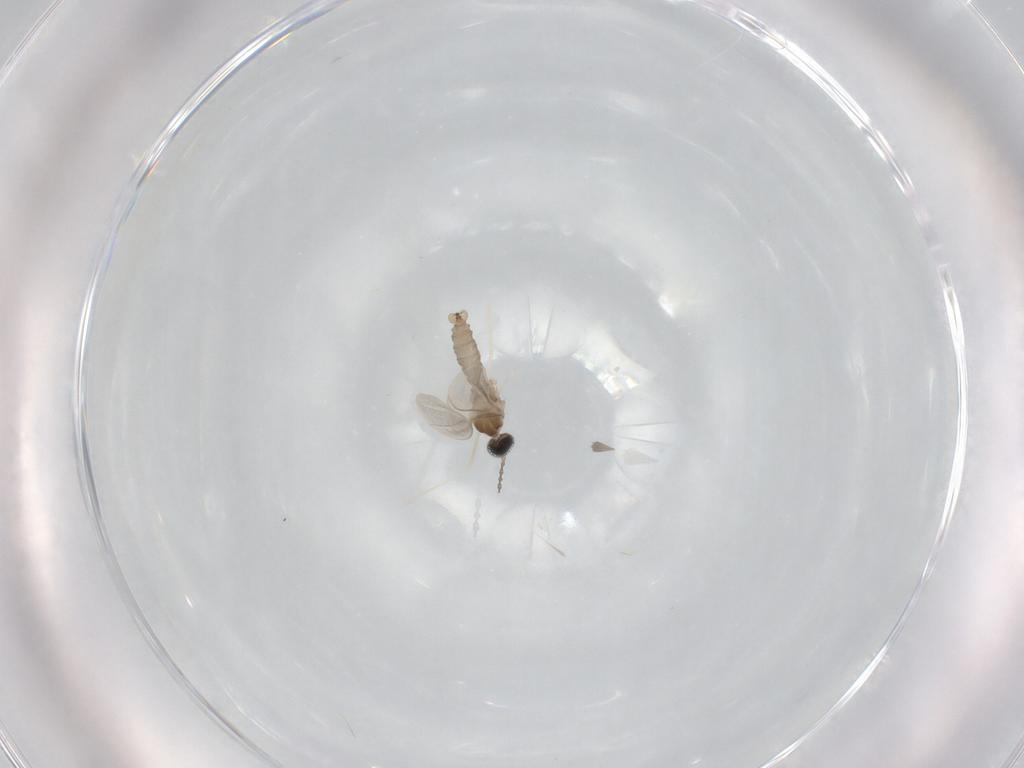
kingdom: Animalia
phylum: Arthropoda
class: Insecta
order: Diptera
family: Cecidomyiidae
